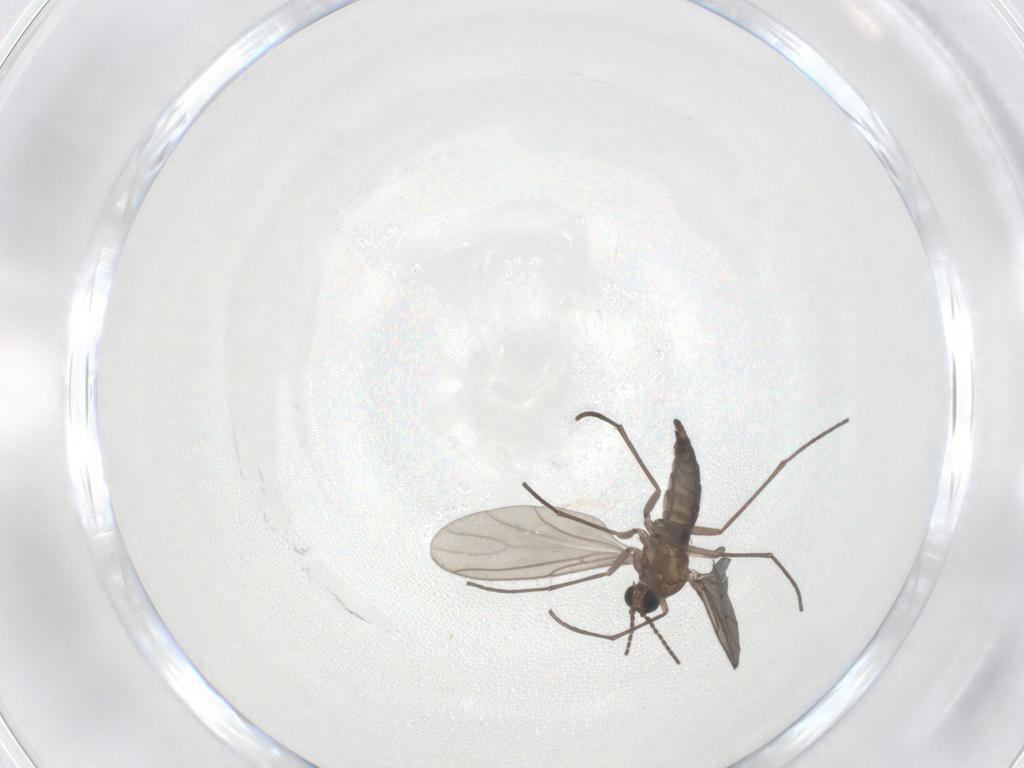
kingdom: Animalia
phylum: Arthropoda
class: Insecta
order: Diptera
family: Sciaridae
